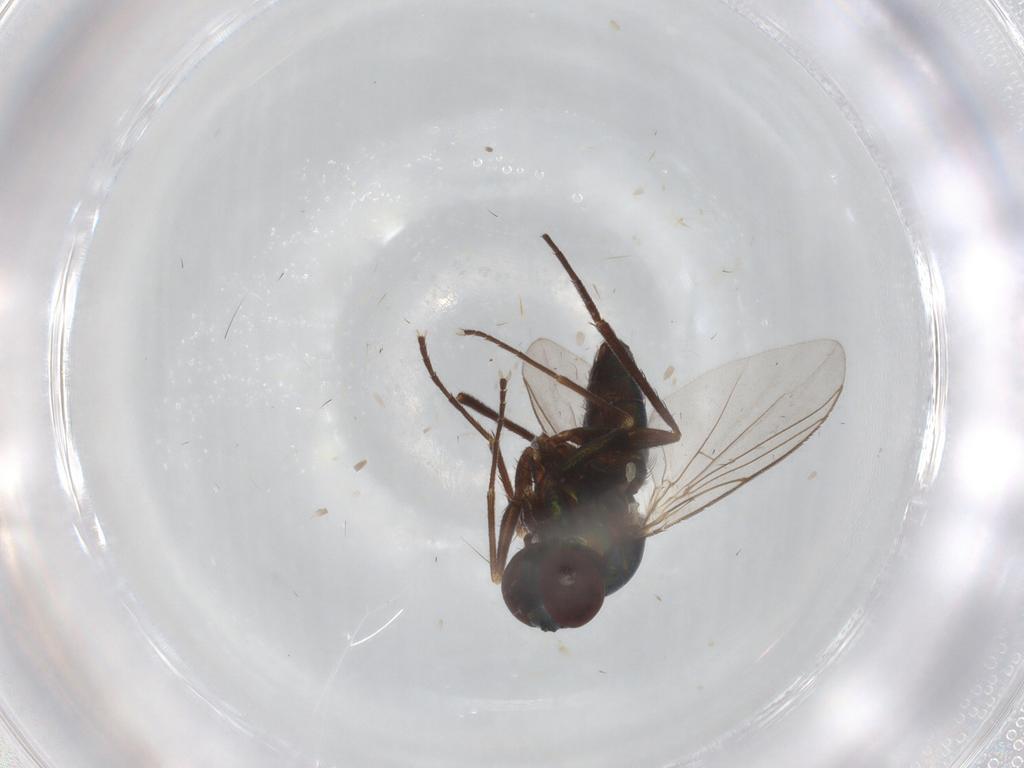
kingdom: Animalia
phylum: Arthropoda
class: Insecta
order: Diptera
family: Dolichopodidae
